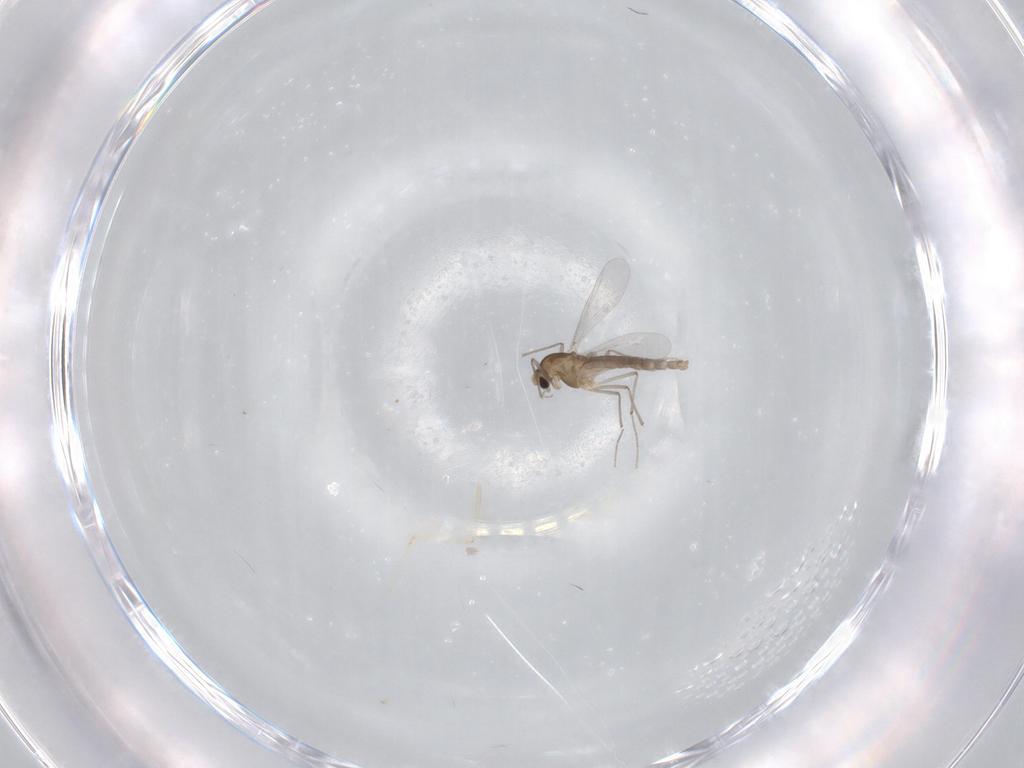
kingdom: Animalia
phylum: Arthropoda
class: Insecta
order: Diptera
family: Cecidomyiidae
